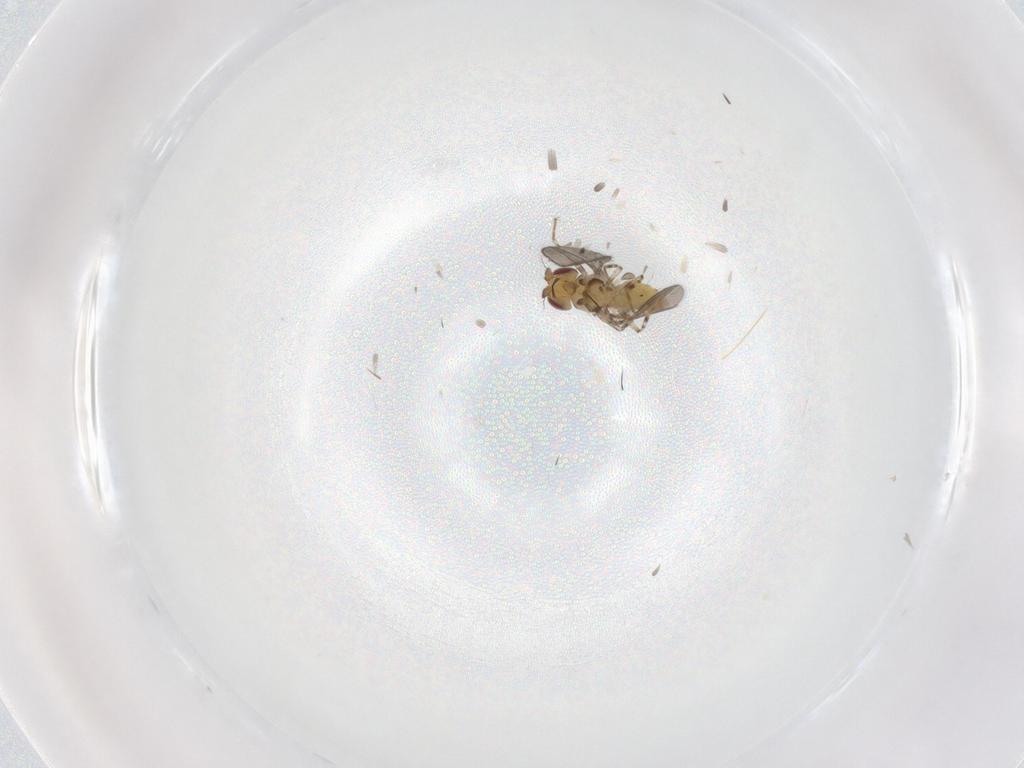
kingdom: Animalia
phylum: Arthropoda
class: Insecta
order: Diptera
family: Asteiidae
